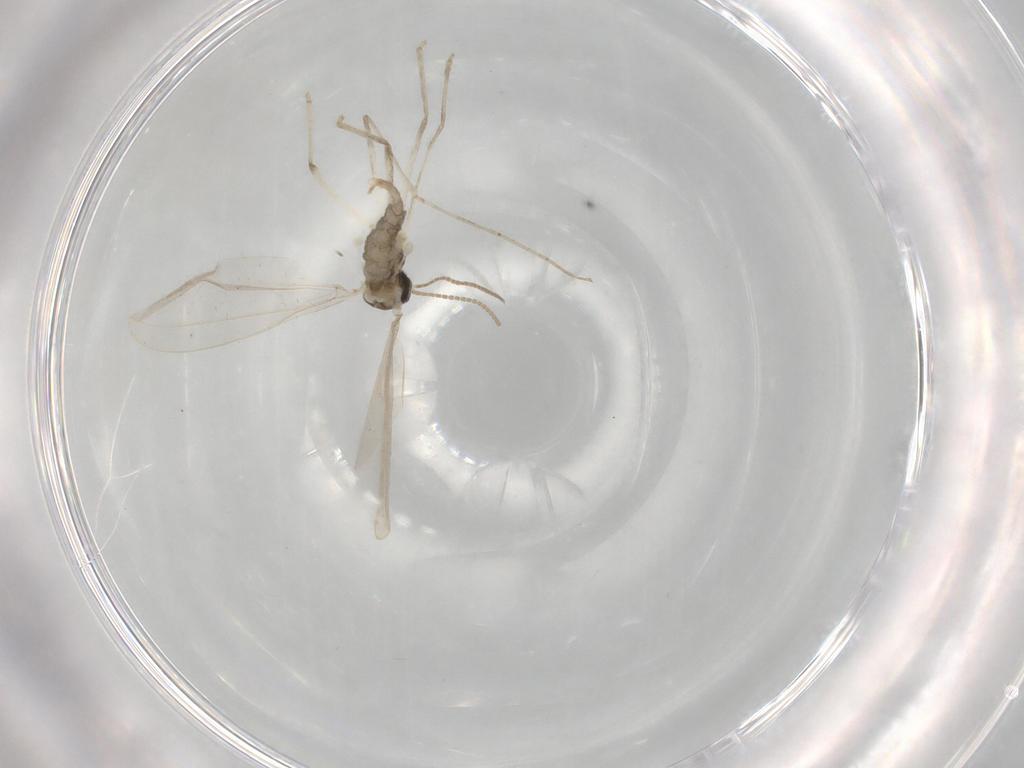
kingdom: Animalia
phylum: Arthropoda
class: Insecta
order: Diptera
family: Cecidomyiidae
